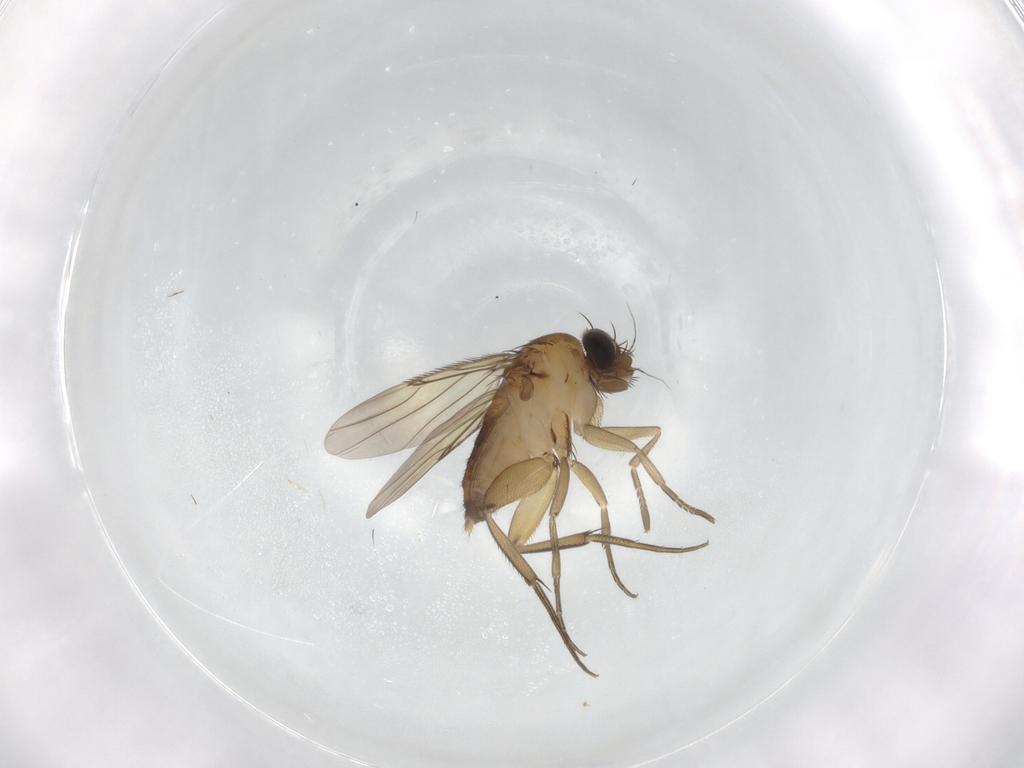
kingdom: Animalia
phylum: Arthropoda
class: Insecta
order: Diptera
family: Phoridae
